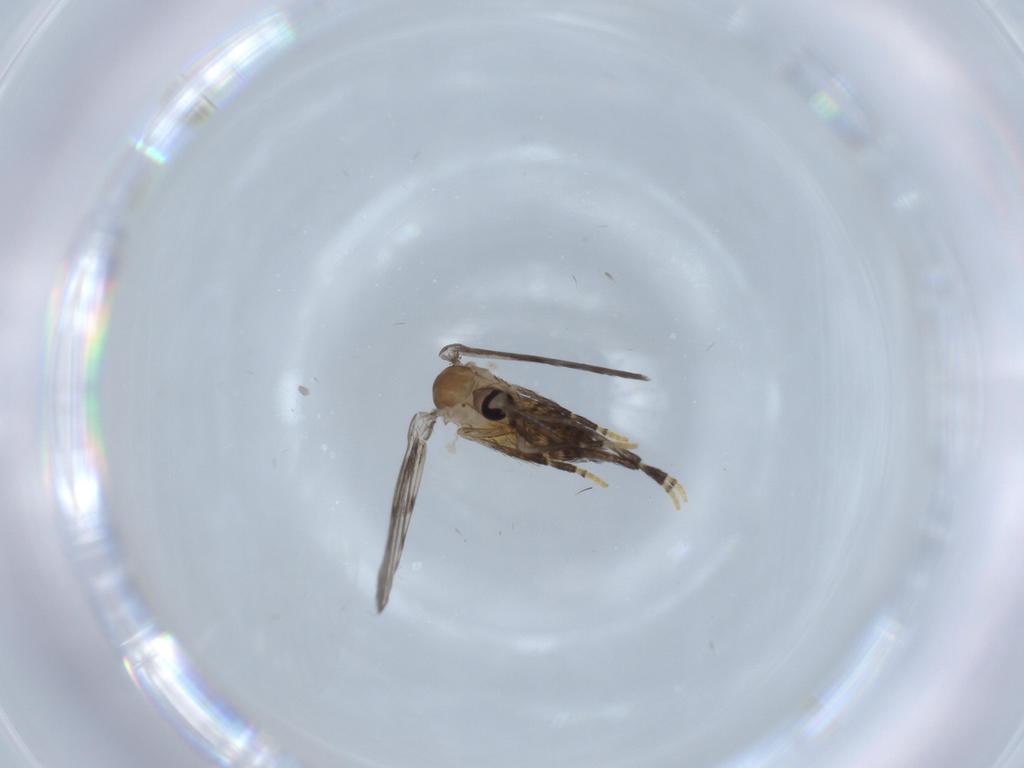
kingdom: Animalia
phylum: Arthropoda
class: Insecta
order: Diptera
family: Psychodidae
